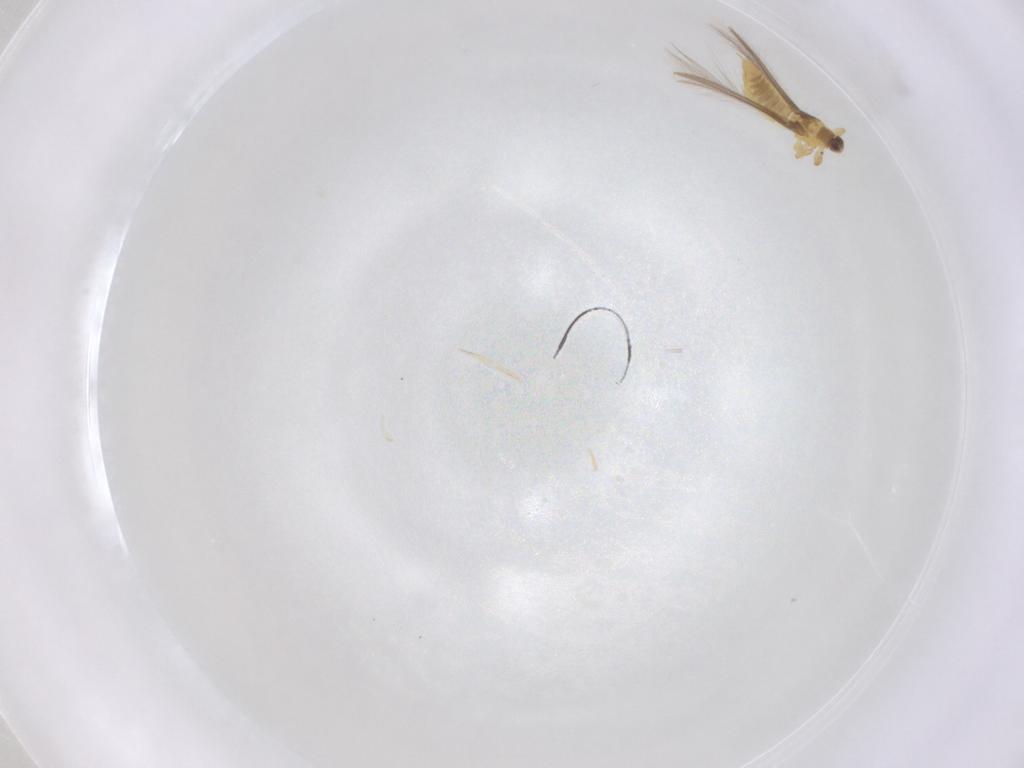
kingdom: Animalia
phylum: Arthropoda
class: Insecta
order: Thysanoptera
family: Thripidae
